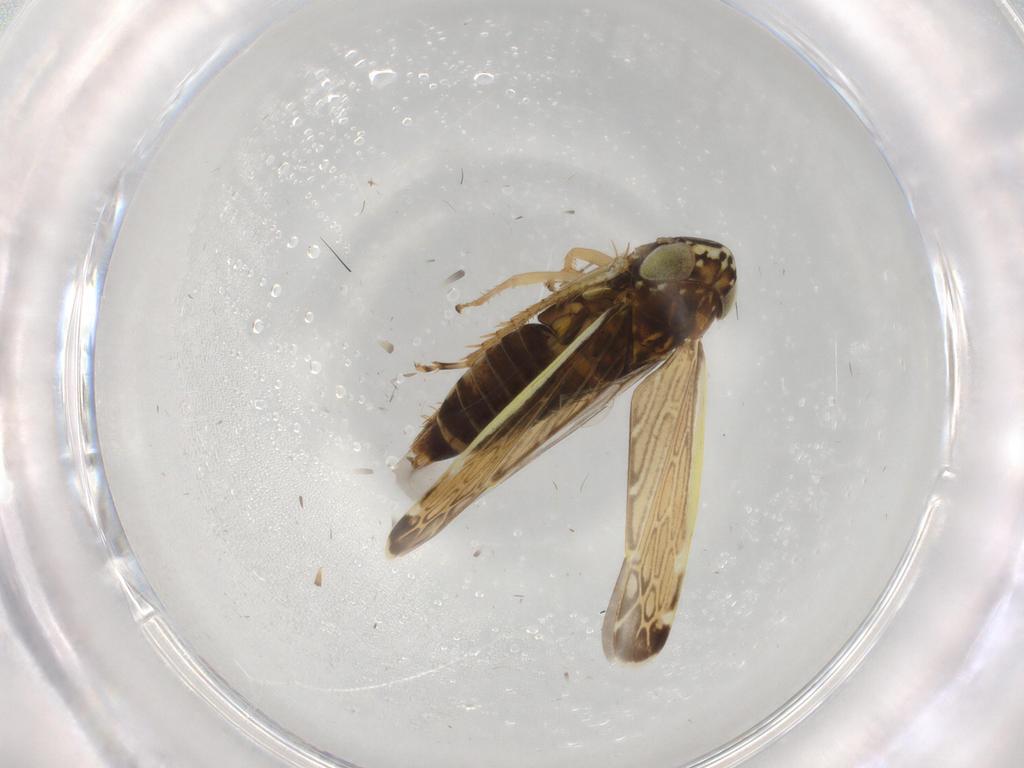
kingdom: Animalia
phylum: Arthropoda
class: Insecta
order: Hemiptera
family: Cicadellidae
